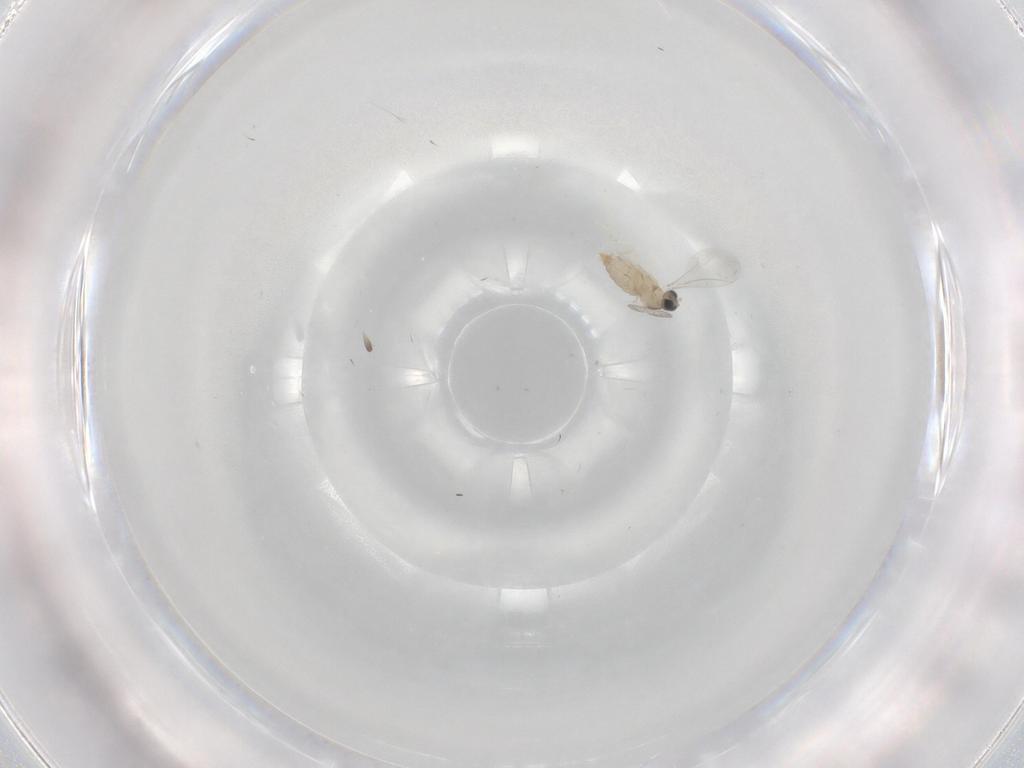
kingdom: Animalia
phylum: Arthropoda
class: Insecta
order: Diptera
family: Cecidomyiidae
